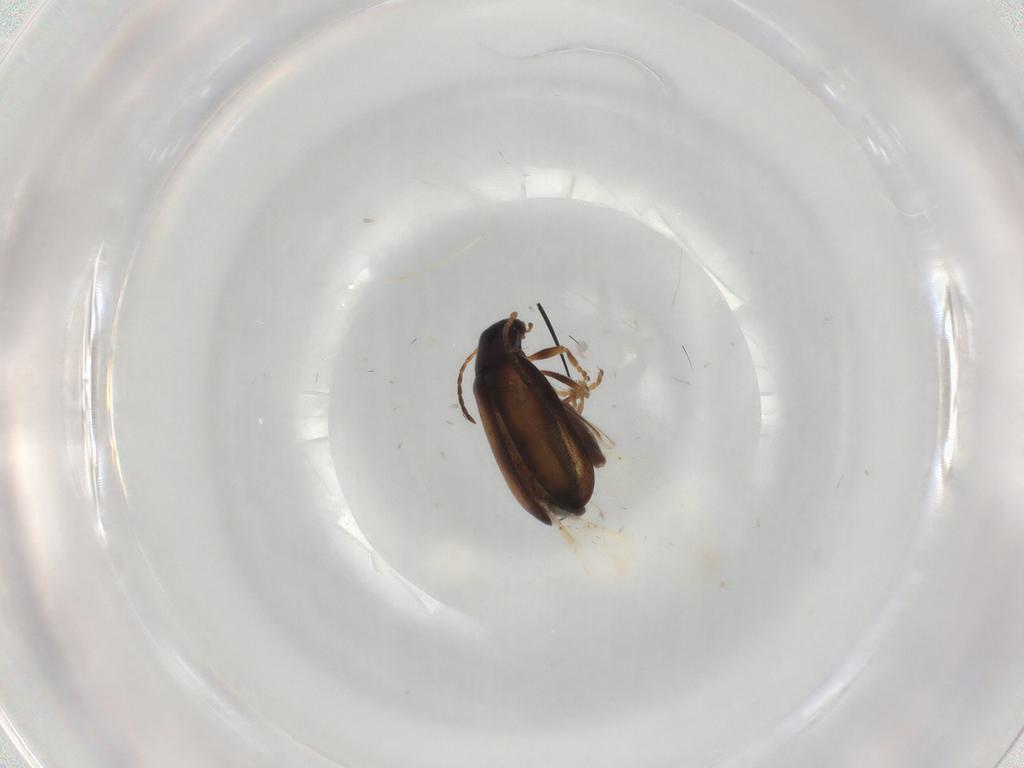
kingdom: Animalia
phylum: Arthropoda
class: Insecta
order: Coleoptera
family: Chrysomelidae
